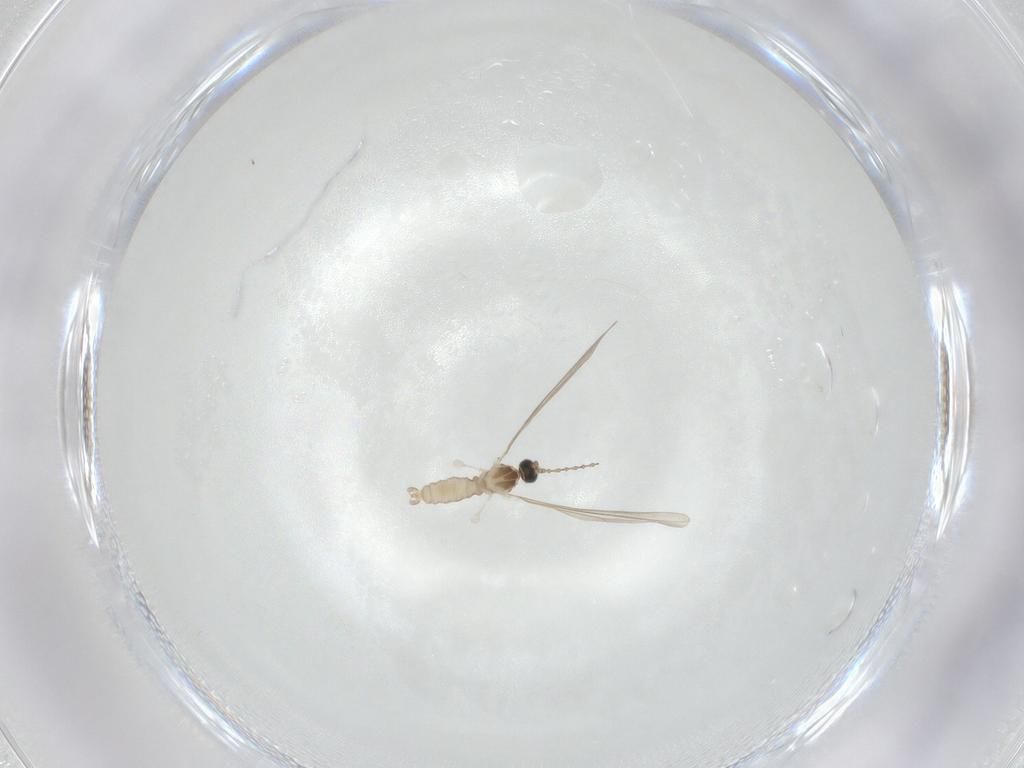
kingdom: Animalia
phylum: Arthropoda
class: Insecta
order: Diptera
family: Cecidomyiidae
